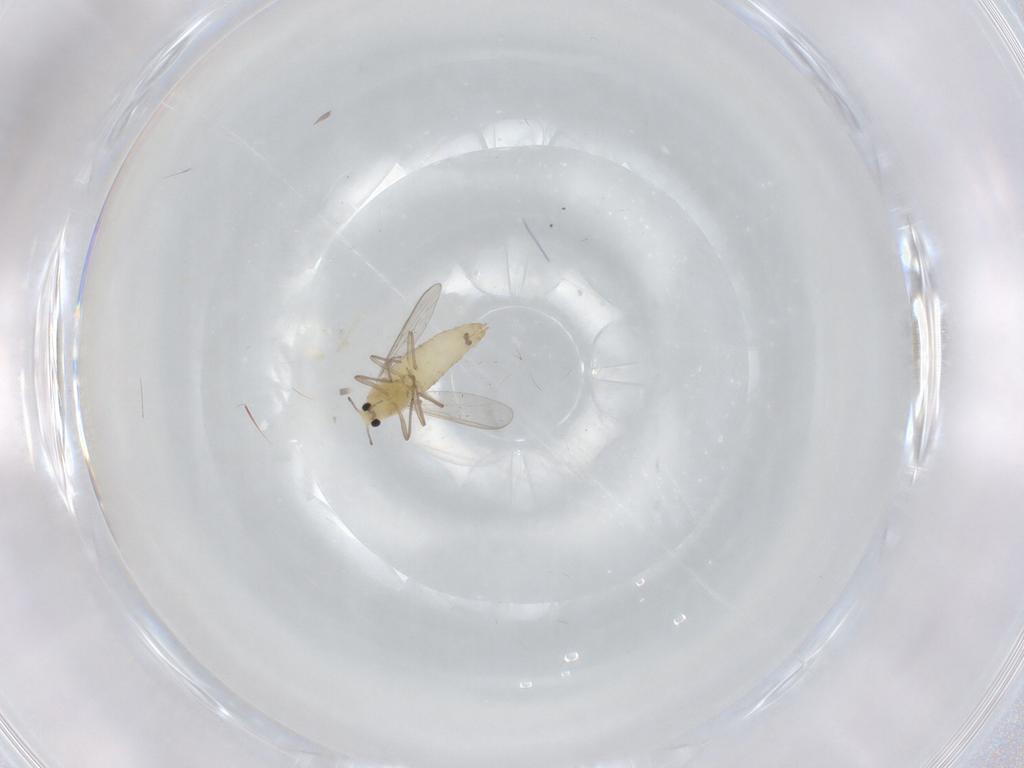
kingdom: Animalia
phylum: Arthropoda
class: Insecta
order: Diptera
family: Chironomidae
